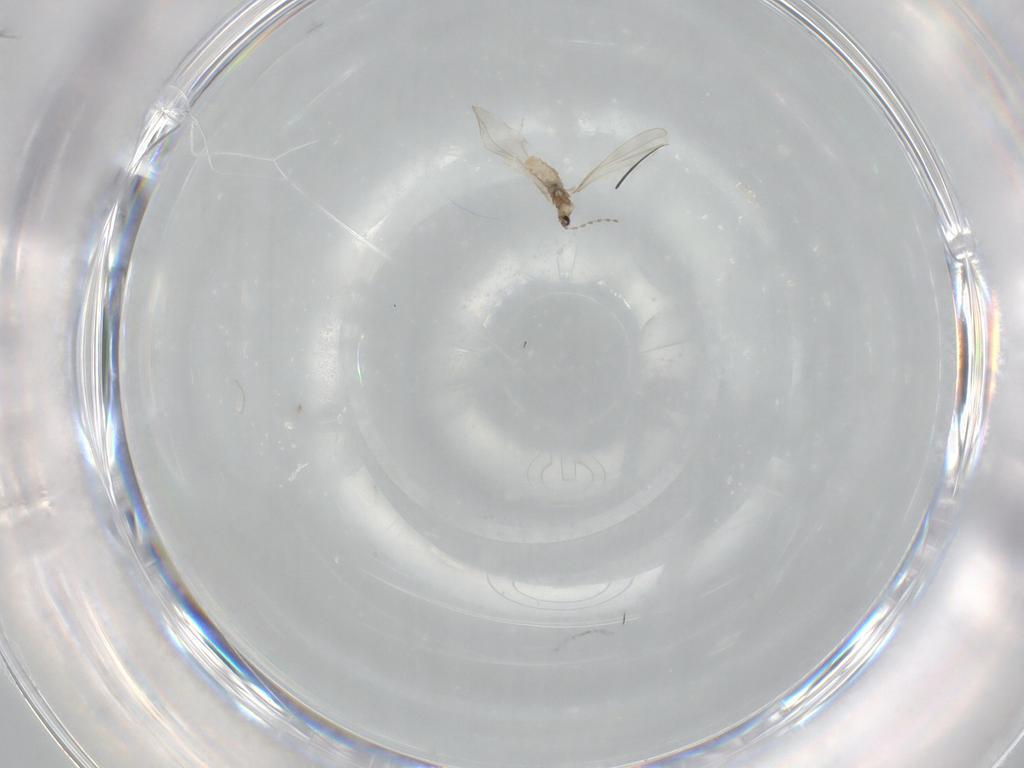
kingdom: Animalia
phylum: Arthropoda
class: Insecta
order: Diptera
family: Cecidomyiidae
